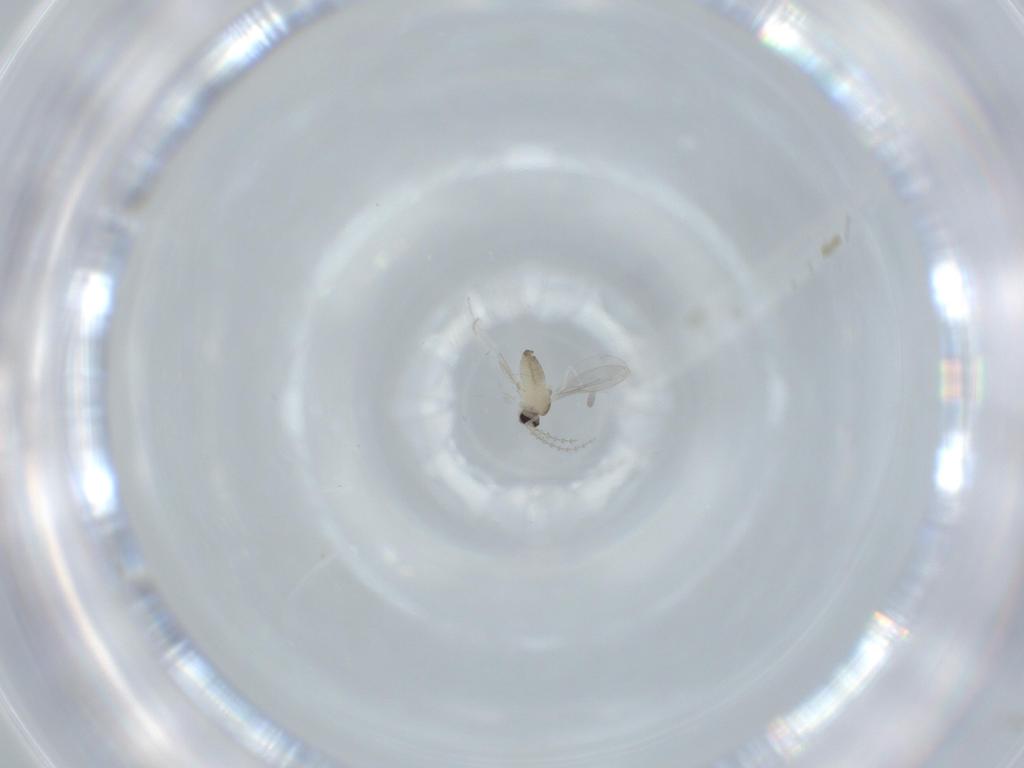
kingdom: Animalia
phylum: Arthropoda
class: Insecta
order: Diptera
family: Cecidomyiidae
